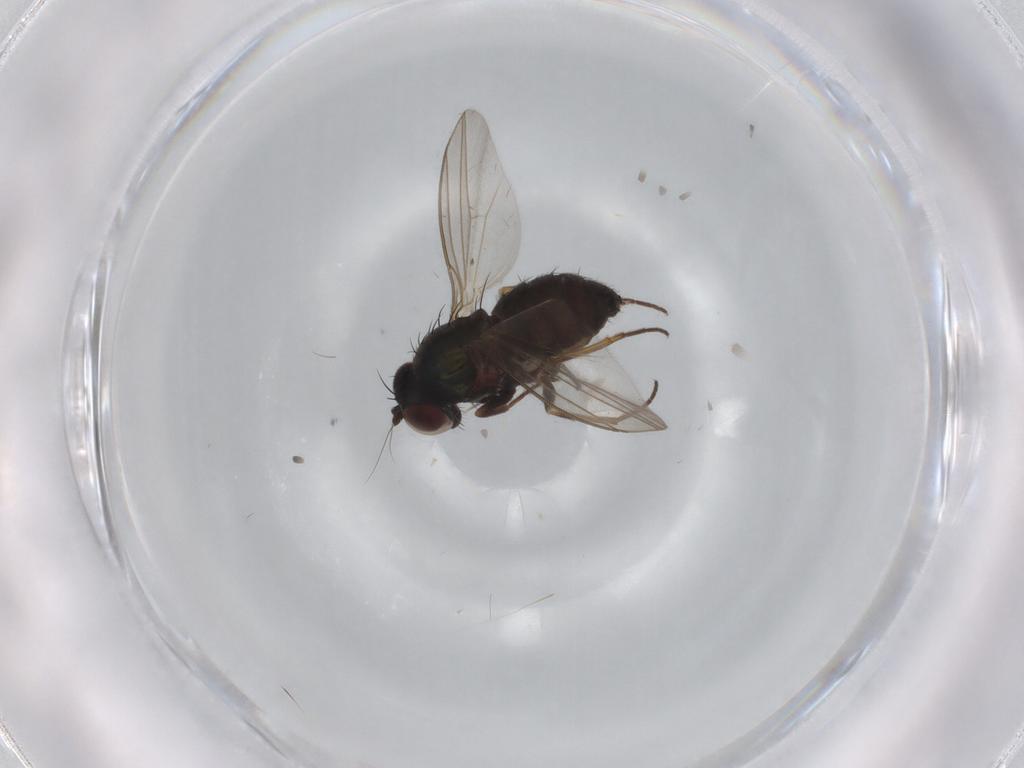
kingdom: Animalia
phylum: Arthropoda
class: Insecta
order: Diptera
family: Dolichopodidae
